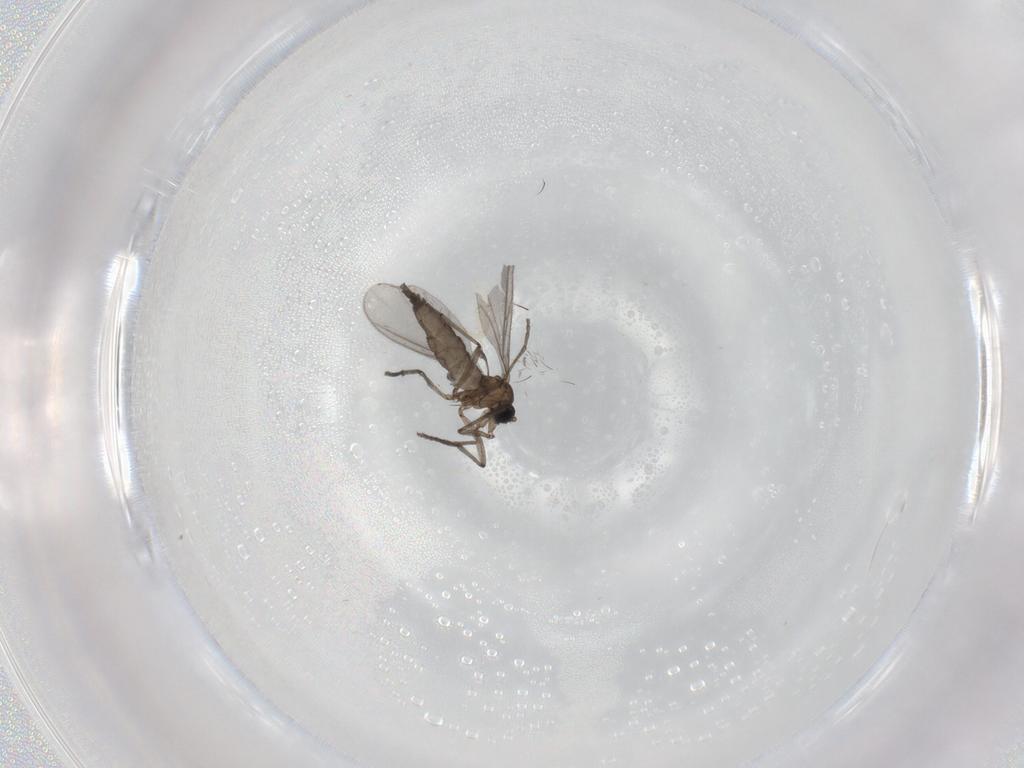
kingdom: Animalia
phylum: Arthropoda
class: Insecta
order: Diptera
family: Sciaridae
